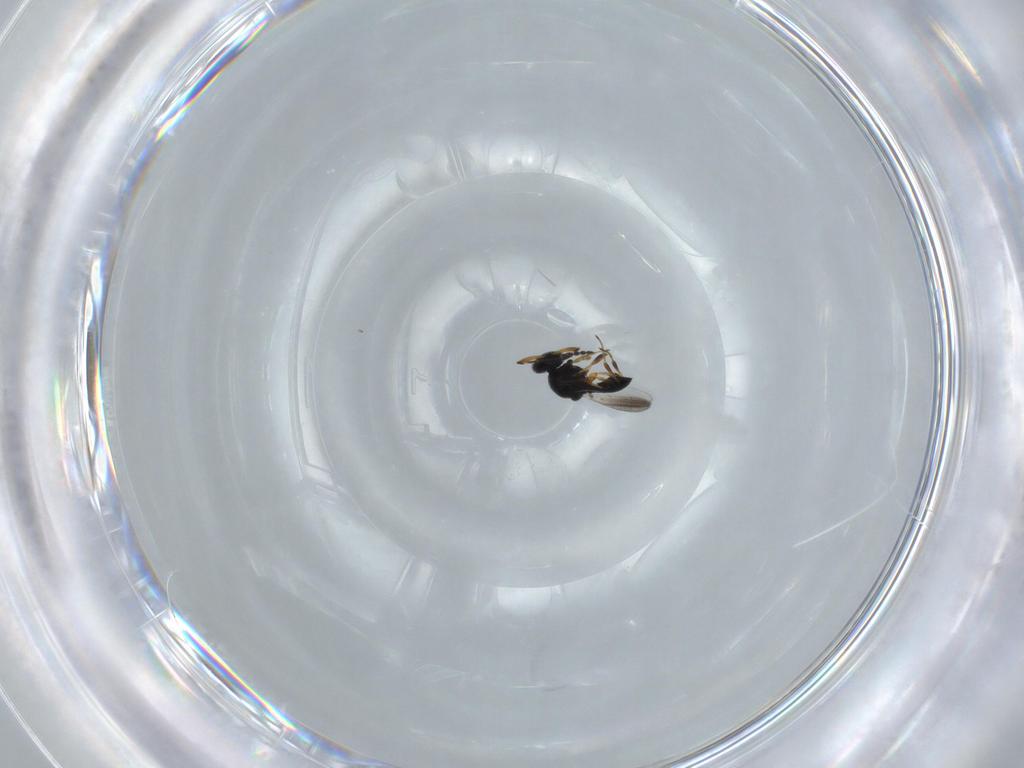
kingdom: Animalia
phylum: Arthropoda
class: Insecta
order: Hymenoptera
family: Platygastridae
